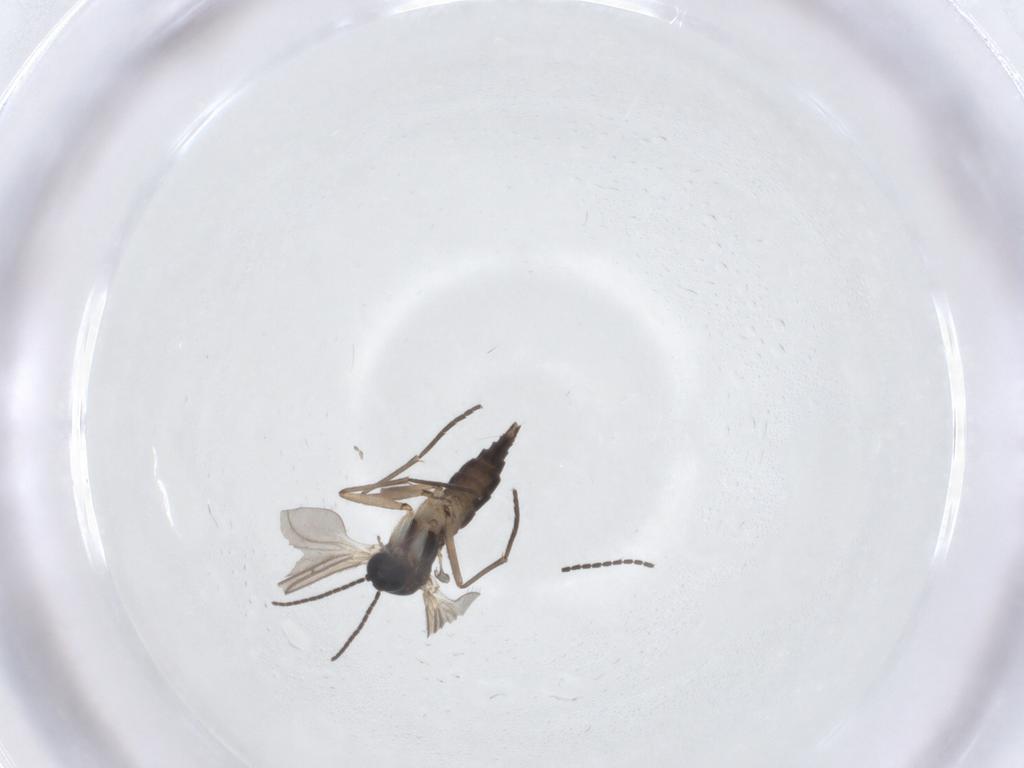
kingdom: Animalia
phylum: Arthropoda
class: Insecta
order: Diptera
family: Sciaridae
